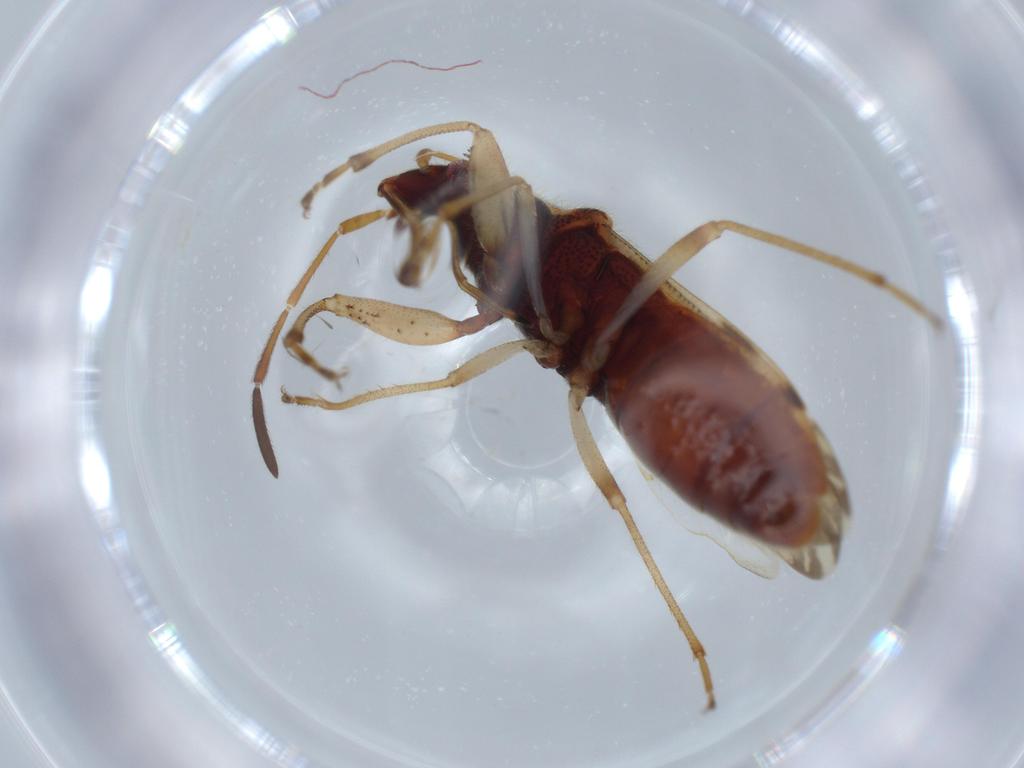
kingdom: Animalia
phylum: Arthropoda
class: Insecta
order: Hemiptera
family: Rhyparochromidae
